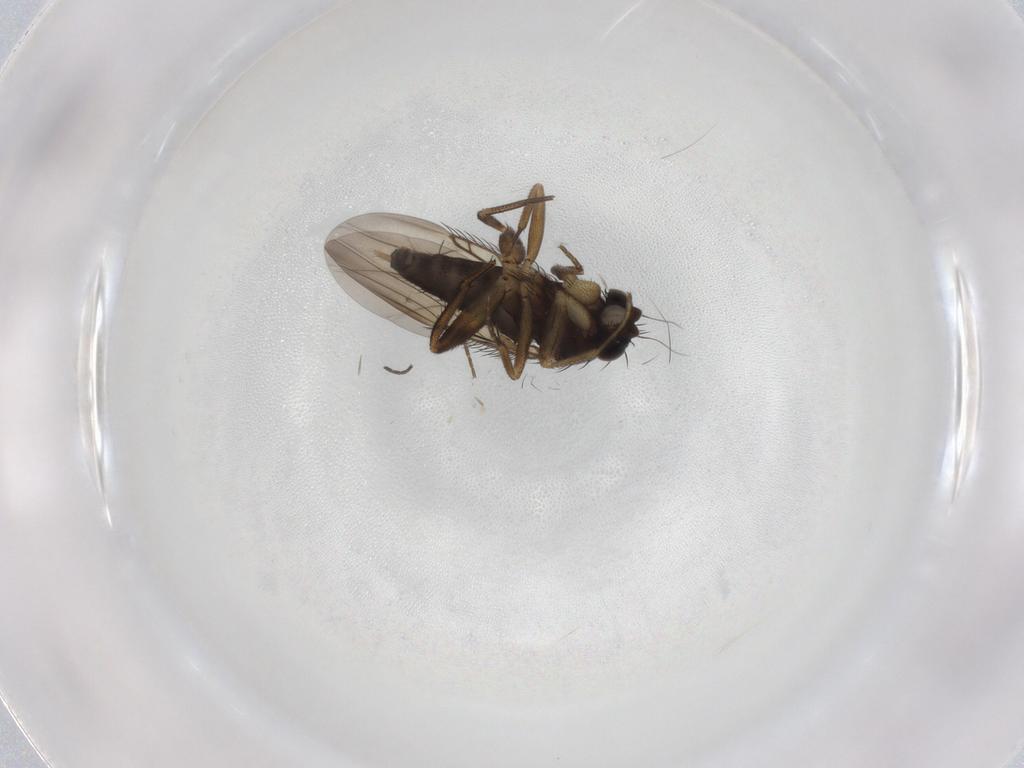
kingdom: Animalia
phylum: Arthropoda
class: Insecta
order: Diptera
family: Phoridae
